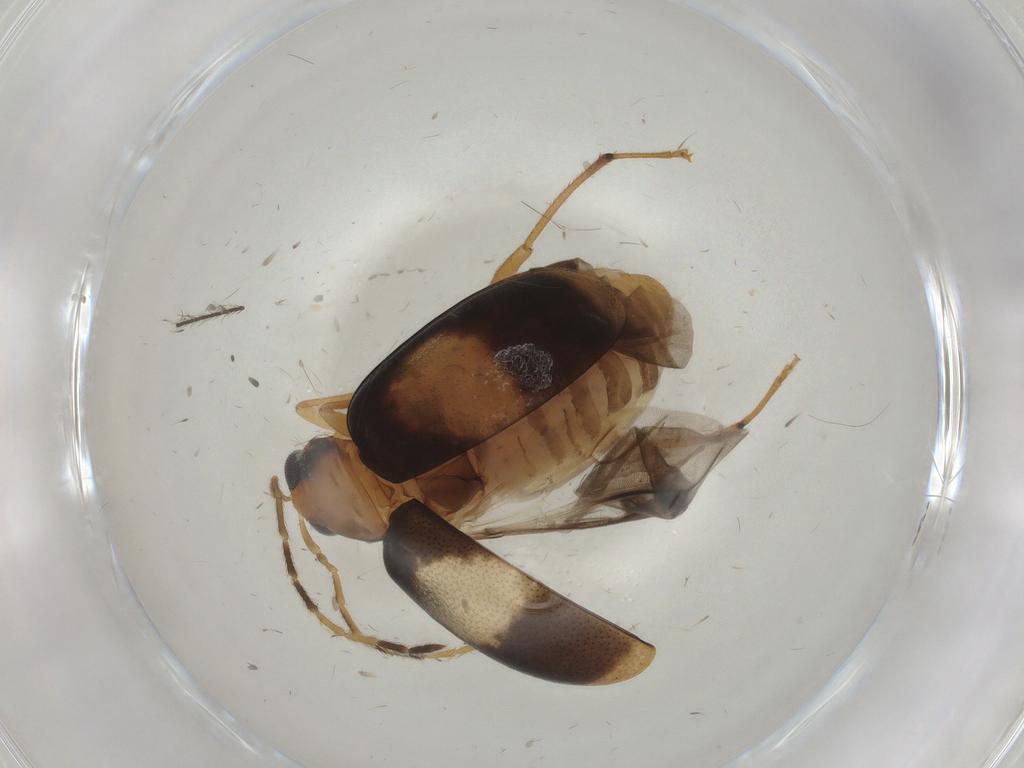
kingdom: Animalia
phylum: Arthropoda
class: Insecta
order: Coleoptera
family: Chrysomelidae
